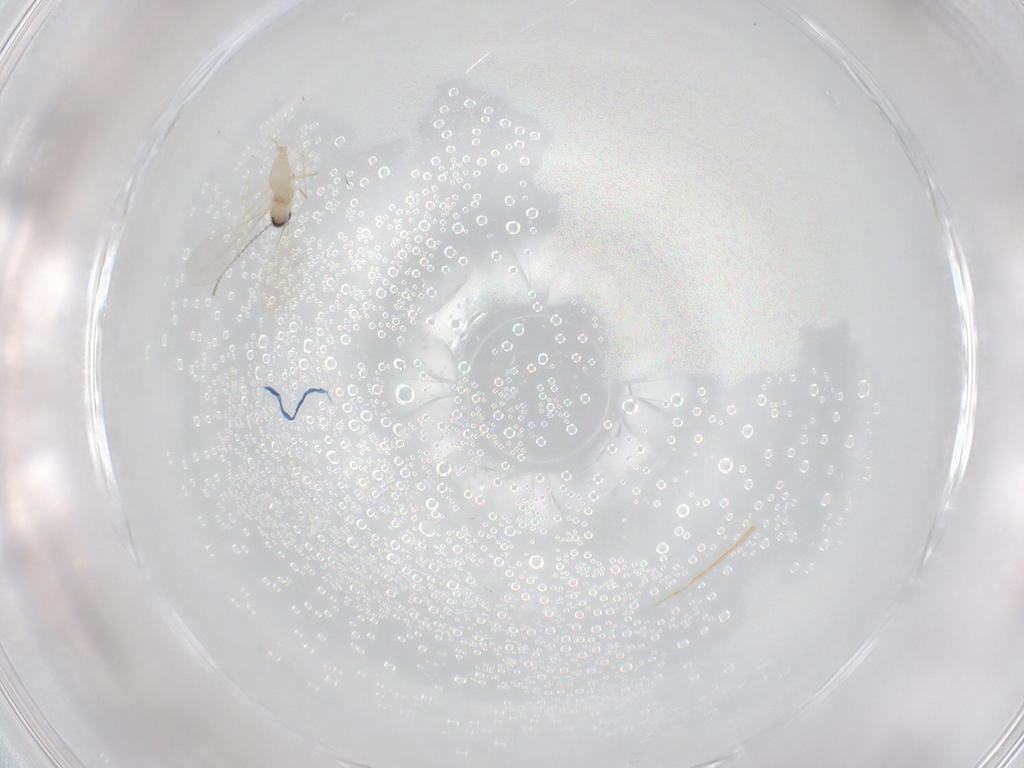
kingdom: Animalia
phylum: Arthropoda
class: Insecta
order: Diptera
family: Cecidomyiidae
